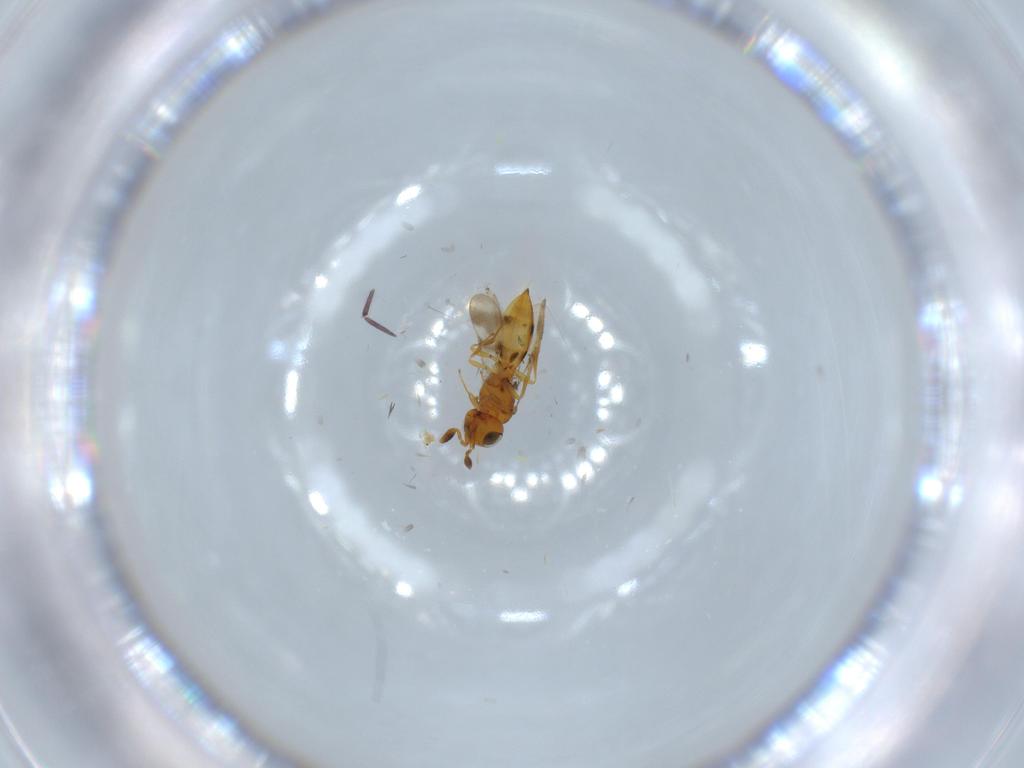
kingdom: Animalia
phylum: Arthropoda
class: Insecta
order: Hymenoptera
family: Scelionidae
